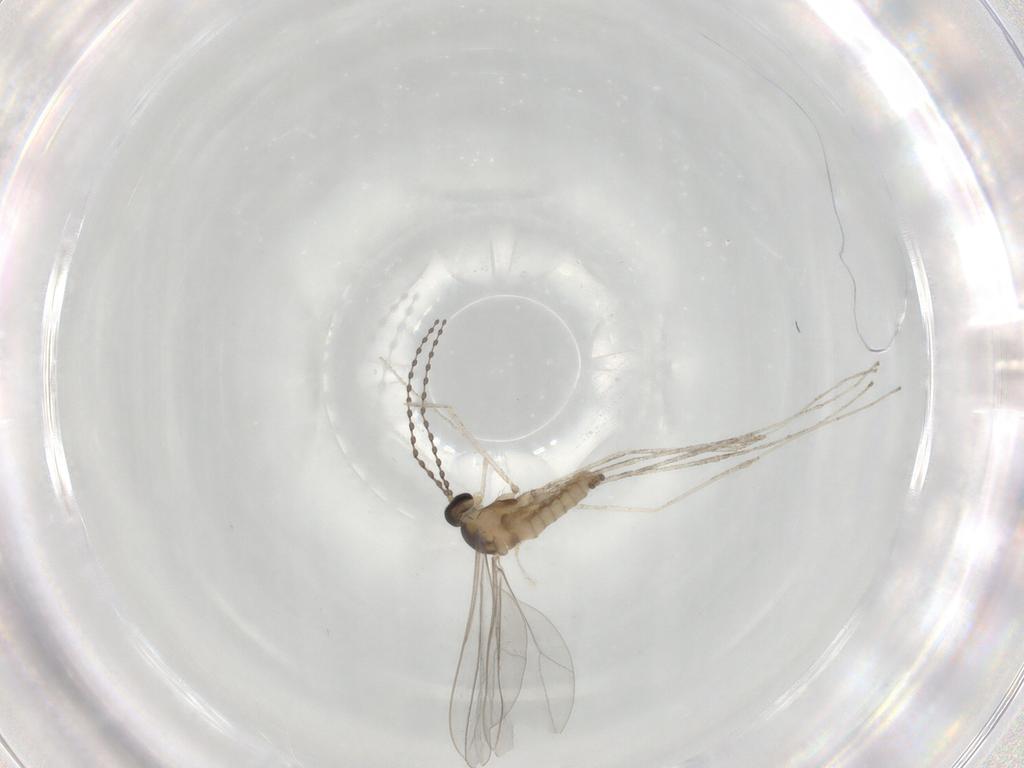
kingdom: Animalia
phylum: Arthropoda
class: Insecta
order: Diptera
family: Sciaridae
